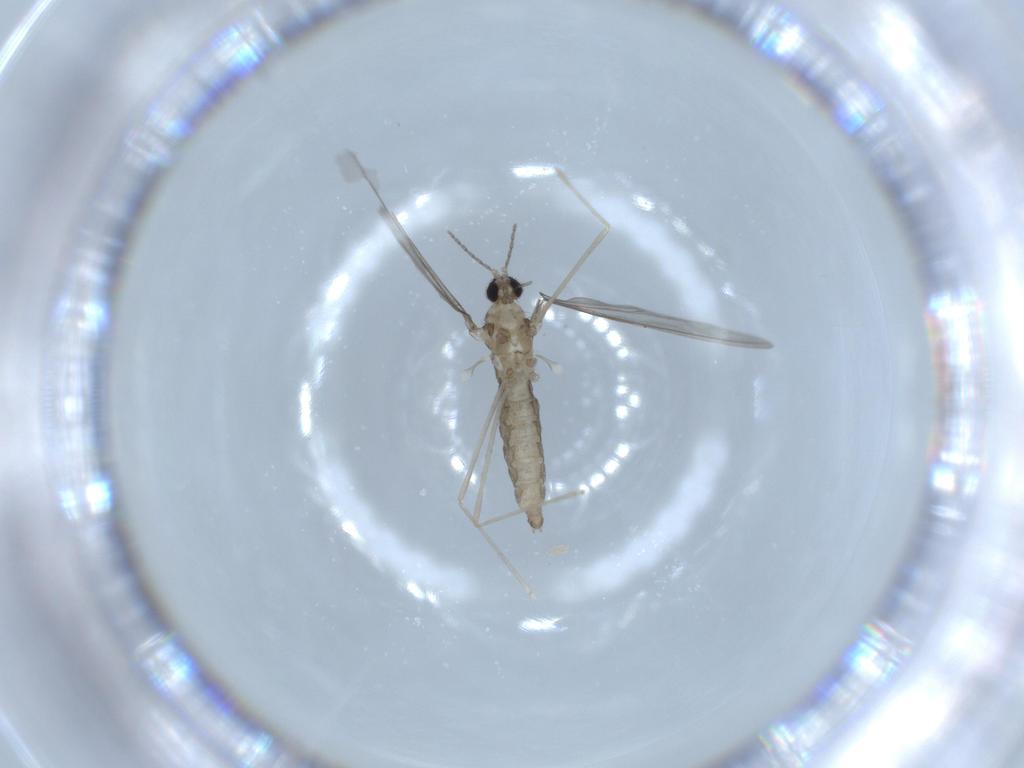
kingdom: Animalia
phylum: Arthropoda
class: Insecta
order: Diptera
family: Cecidomyiidae
